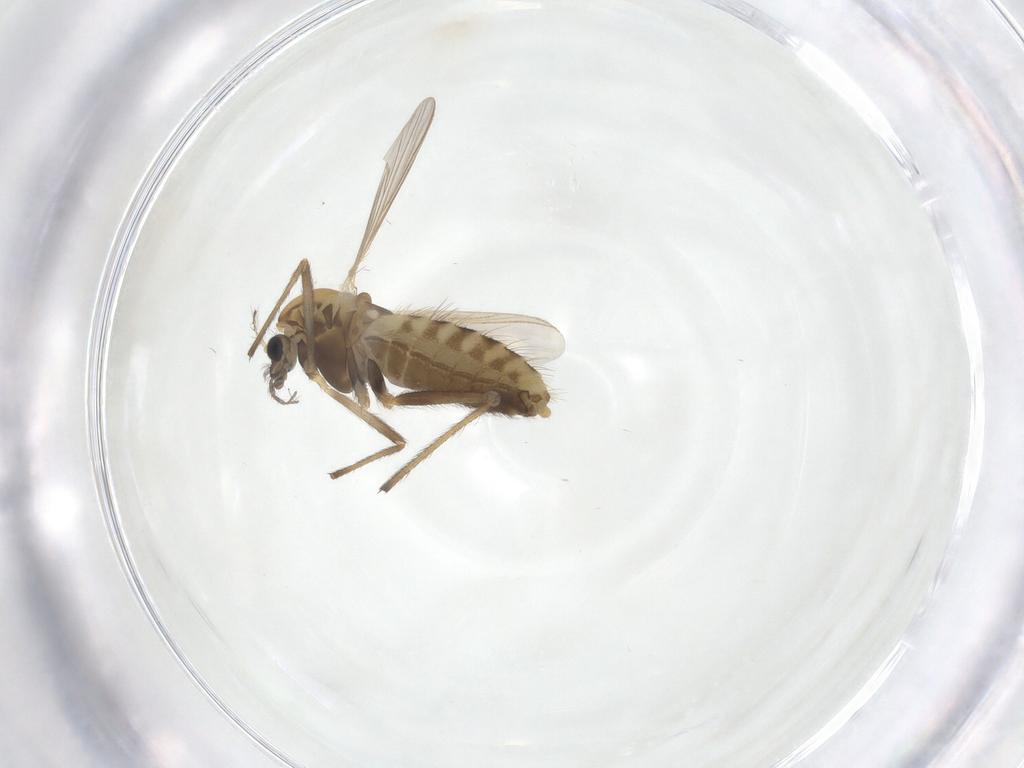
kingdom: Animalia
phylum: Arthropoda
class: Insecta
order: Diptera
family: Chironomidae
